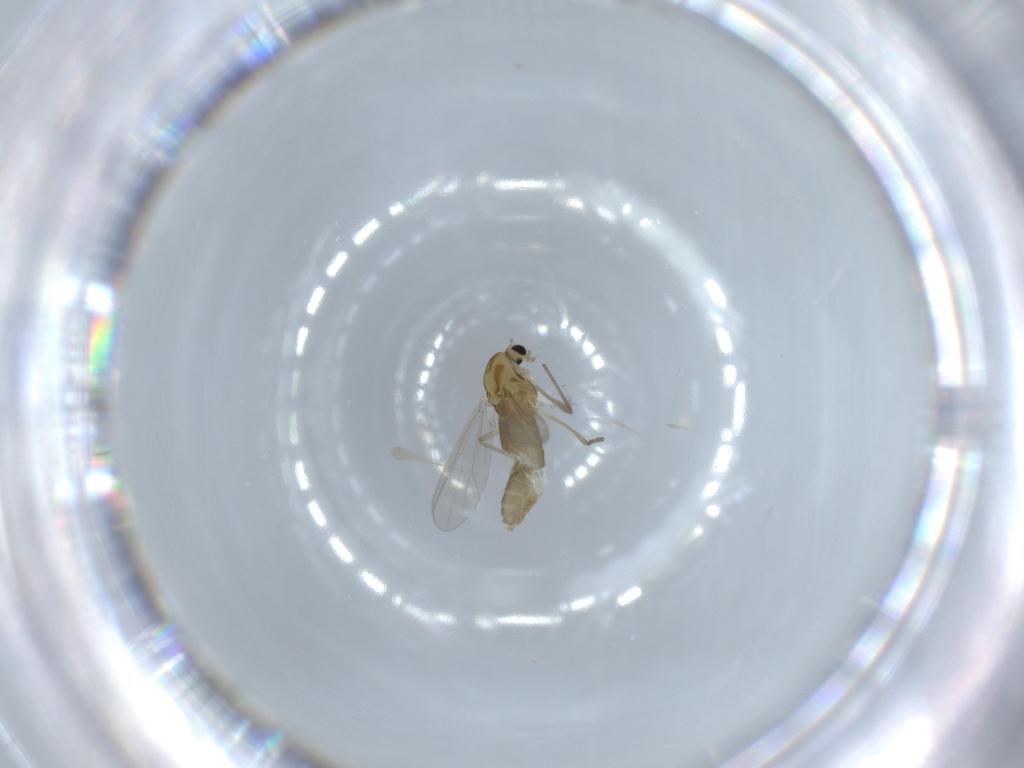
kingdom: Animalia
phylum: Arthropoda
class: Insecta
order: Diptera
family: Chironomidae
